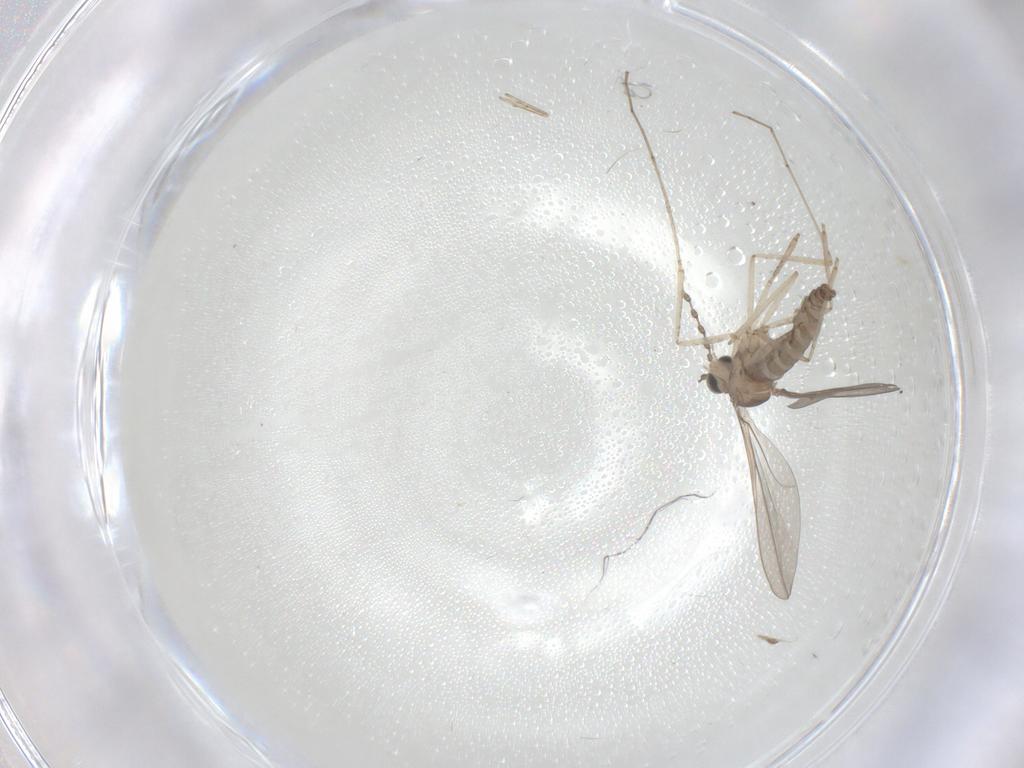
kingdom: Animalia
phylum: Arthropoda
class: Insecta
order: Diptera
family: Cecidomyiidae
